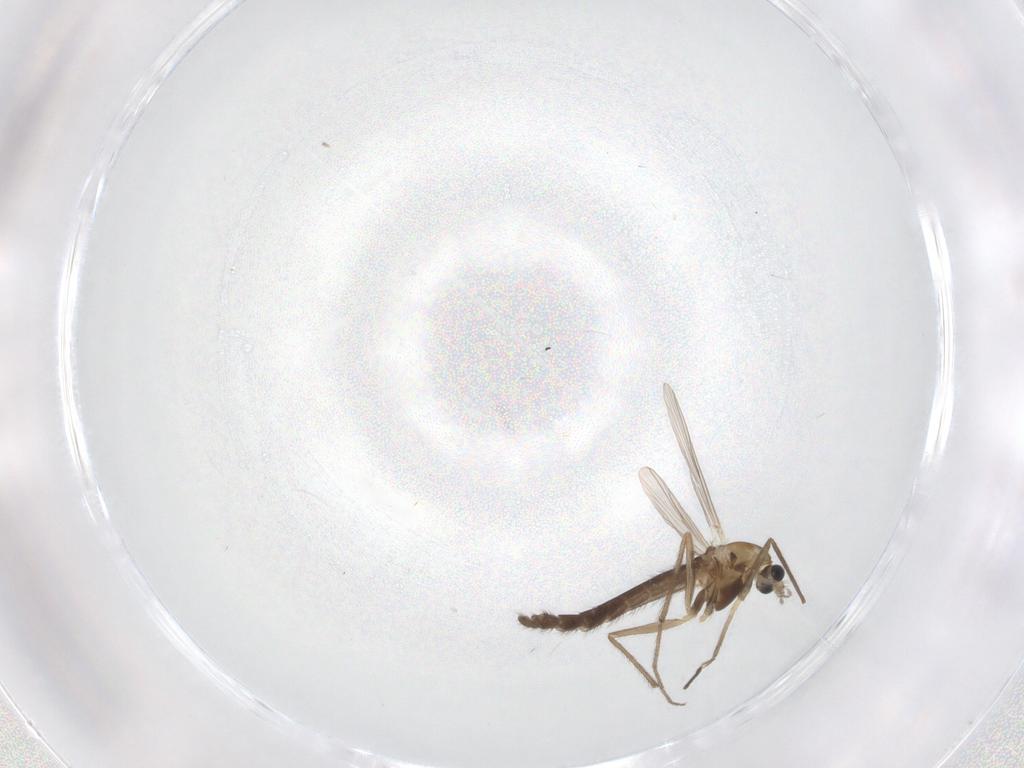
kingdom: Animalia
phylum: Arthropoda
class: Insecta
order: Diptera
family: Chironomidae
